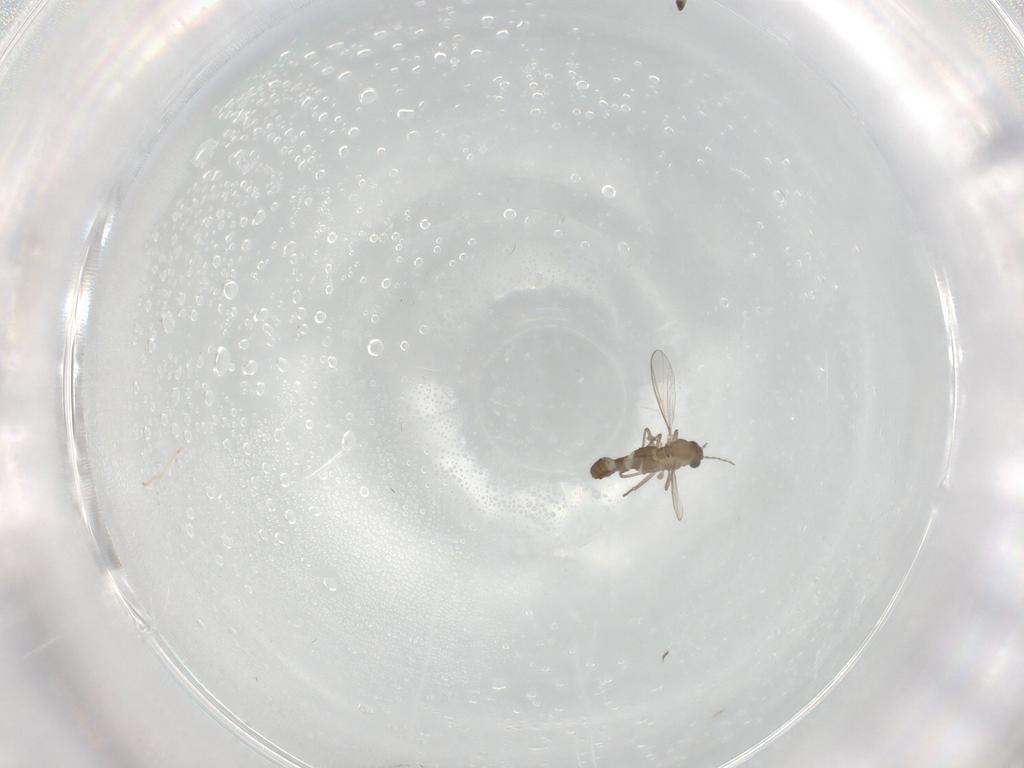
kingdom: Animalia
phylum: Arthropoda
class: Insecta
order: Diptera
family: Chironomidae
